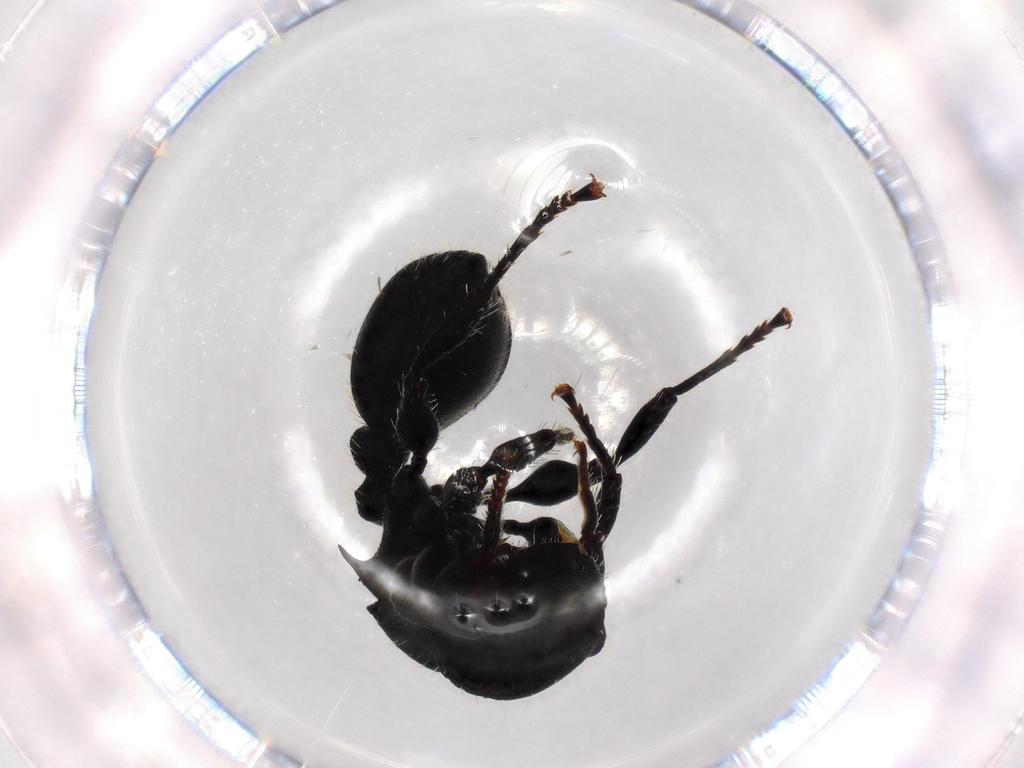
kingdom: Animalia
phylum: Arthropoda
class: Insecta
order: Hymenoptera
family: Formicidae
